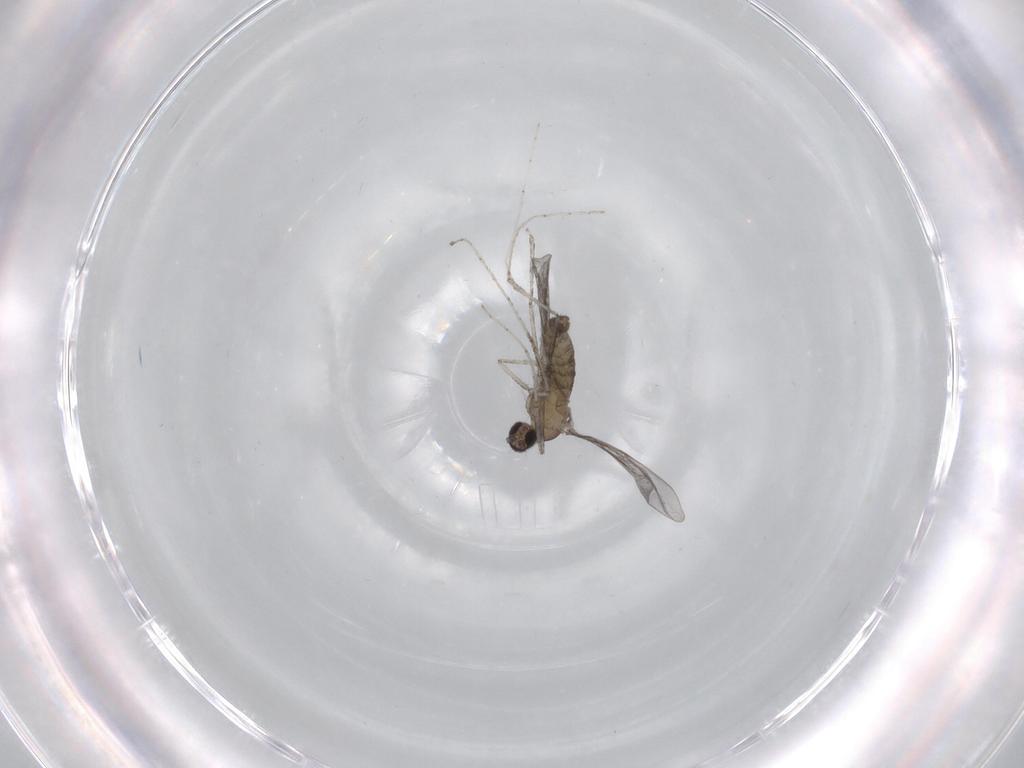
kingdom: Animalia
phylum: Arthropoda
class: Insecta
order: Diptera
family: Cecidomyiidae
